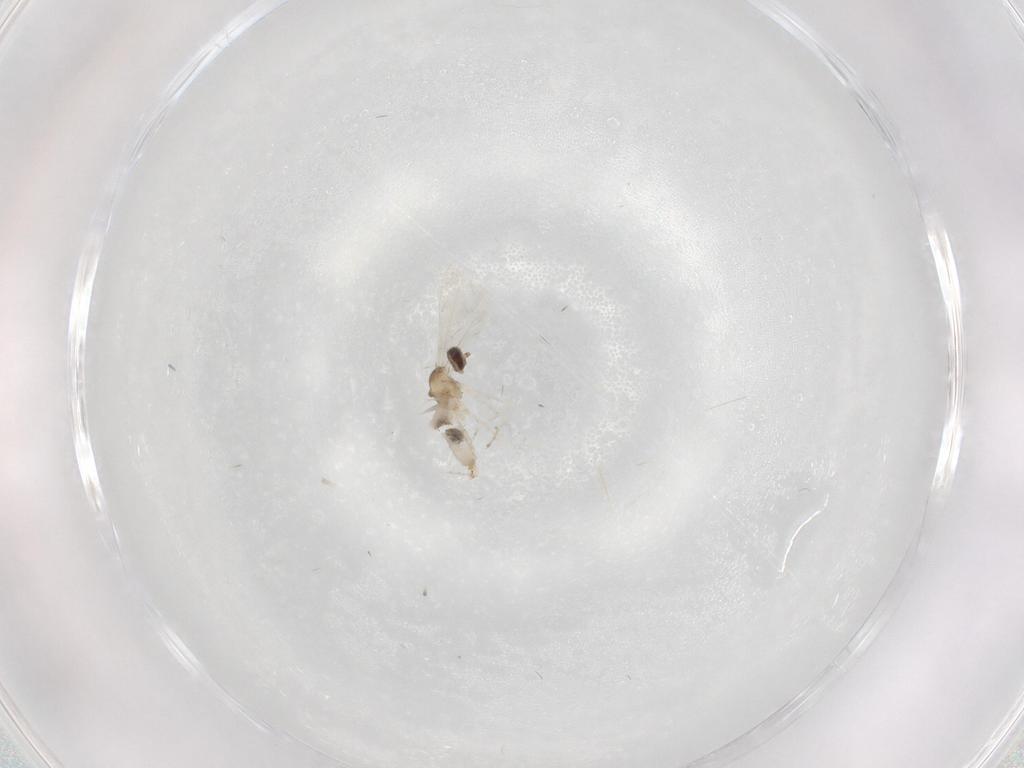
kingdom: Animalia
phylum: Arthropoda
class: Insecta
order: Diptera
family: Cecidomyiidae
